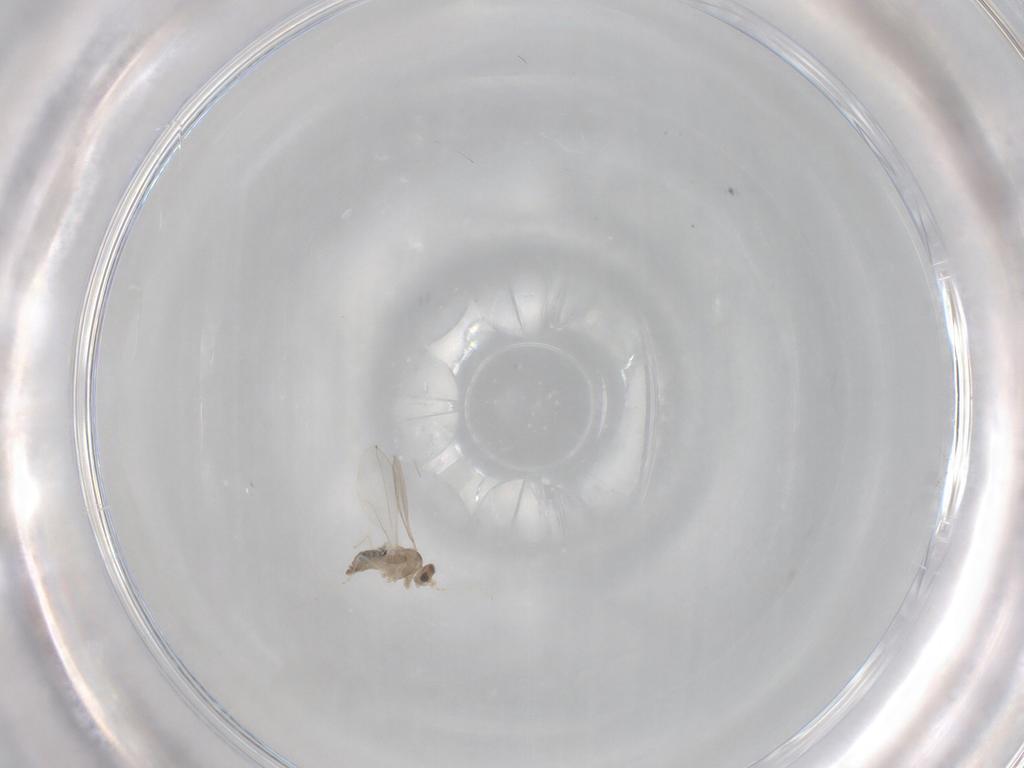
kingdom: Animalia
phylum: Arthropoda
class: Insecta
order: Diptera
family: Cecidomyiidae
